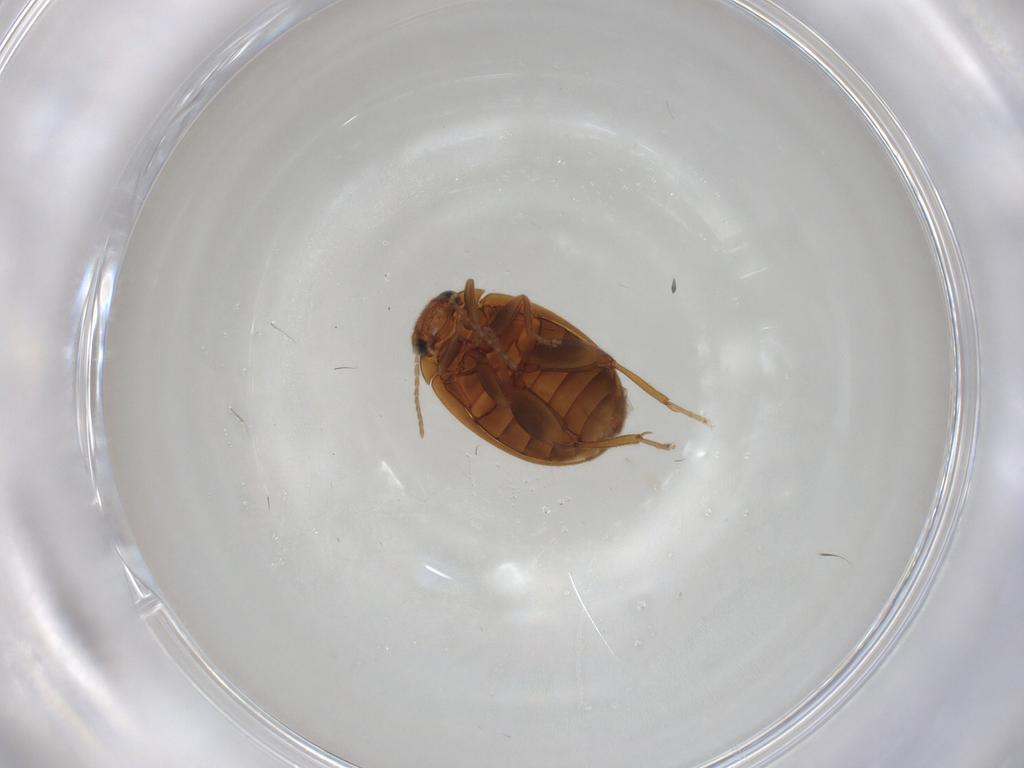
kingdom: Animalia
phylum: Arthropoda
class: Insecta
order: Coleoptera
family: Scirtidae
